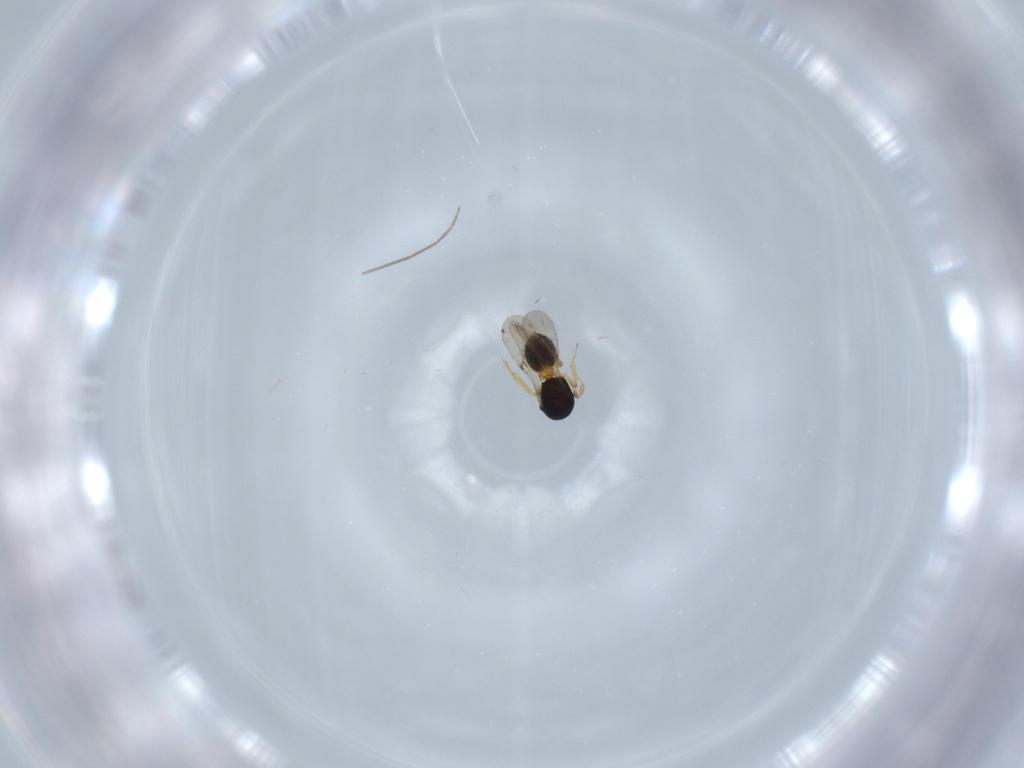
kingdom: Animalia
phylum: Arthropoda
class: Insecta
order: Hymenoptera
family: Scelionidae
